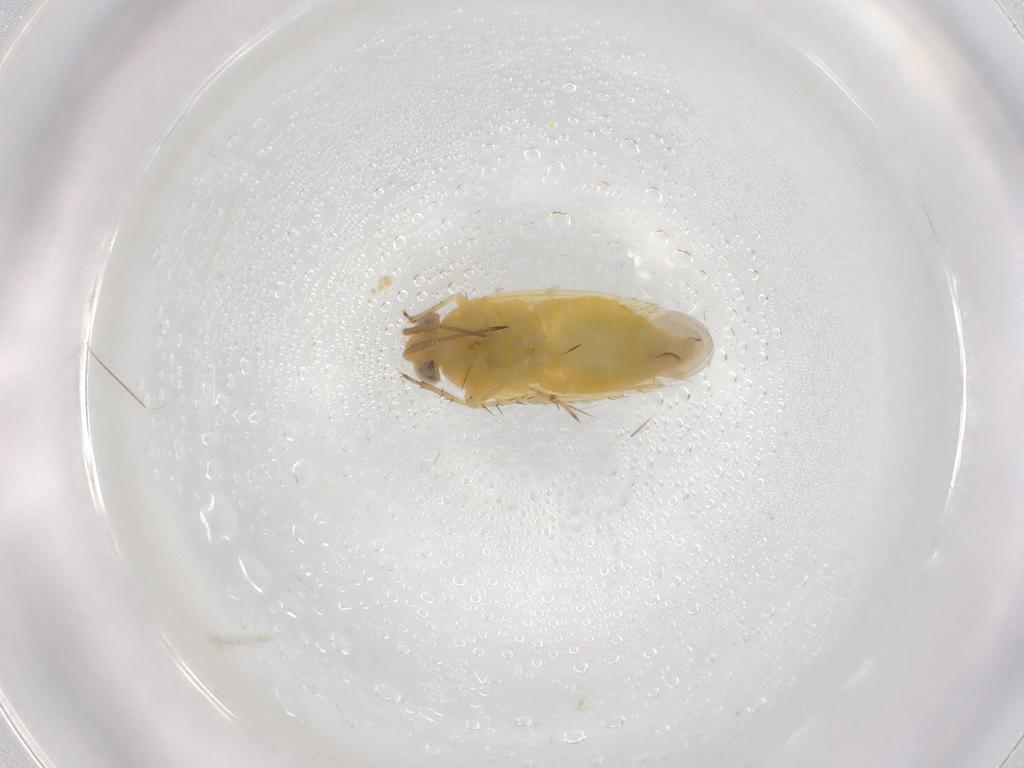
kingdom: Animalia
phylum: Arthropoda
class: Insecta
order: Hemiptera
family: Miridae
